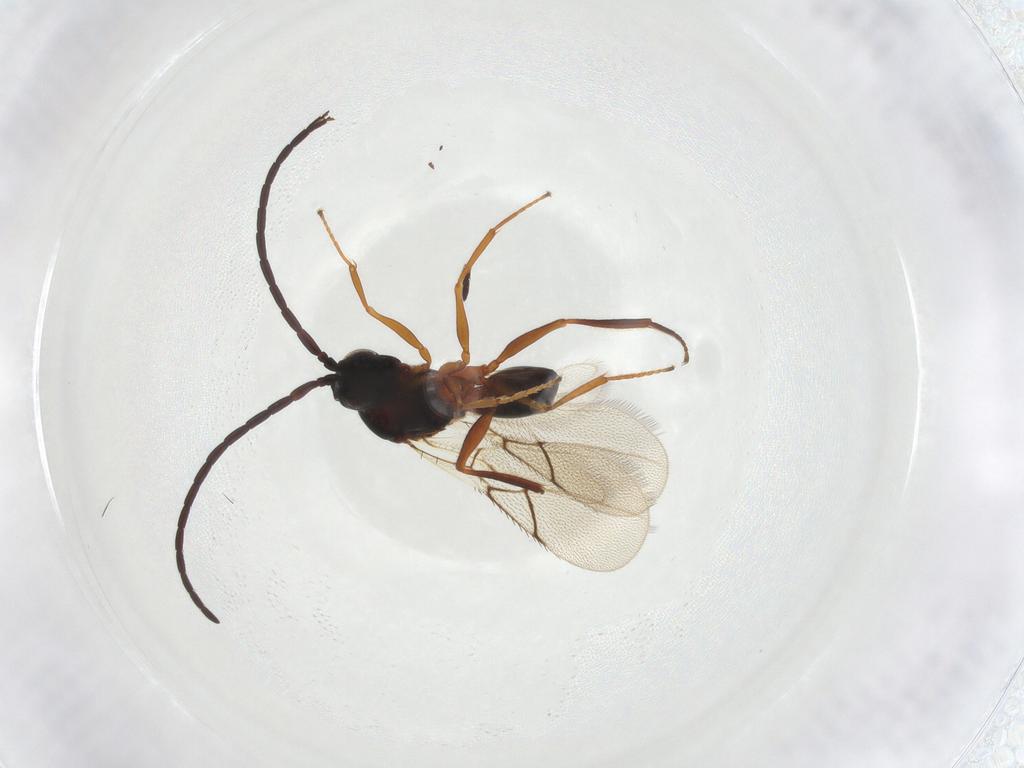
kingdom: Animalia
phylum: Arthropoda
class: Insecta
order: Hymenoptera
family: Figitidae
